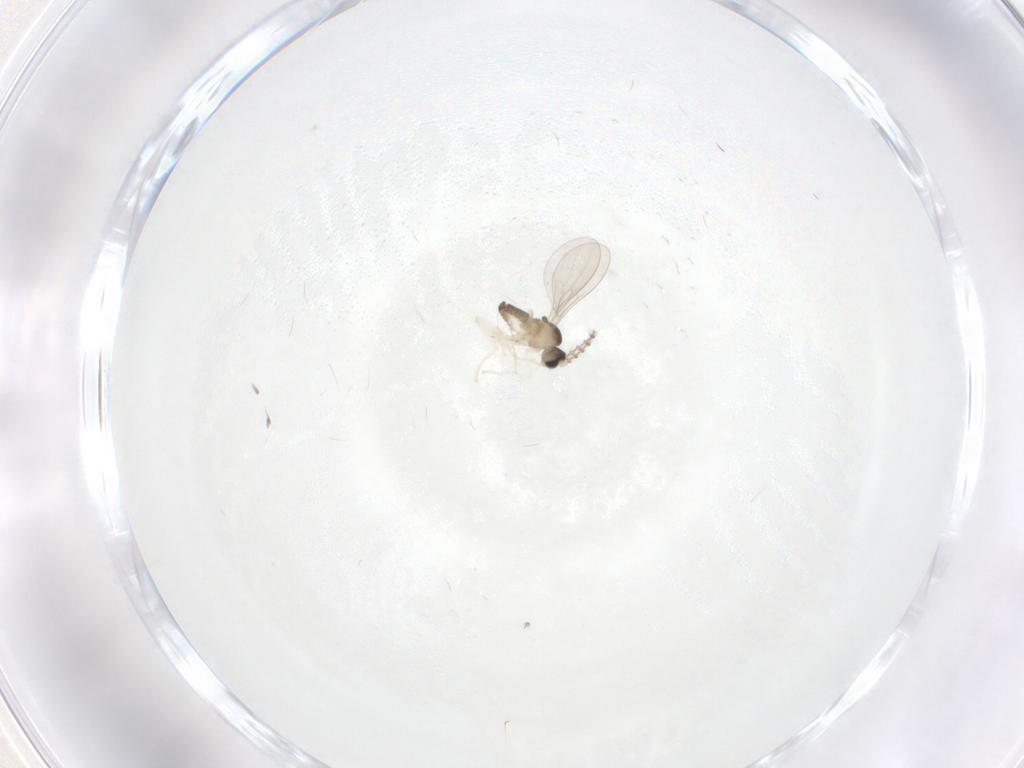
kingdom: Animalia
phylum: Arthropoda
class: Insecta
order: Diptera
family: Cecidomyiidae
